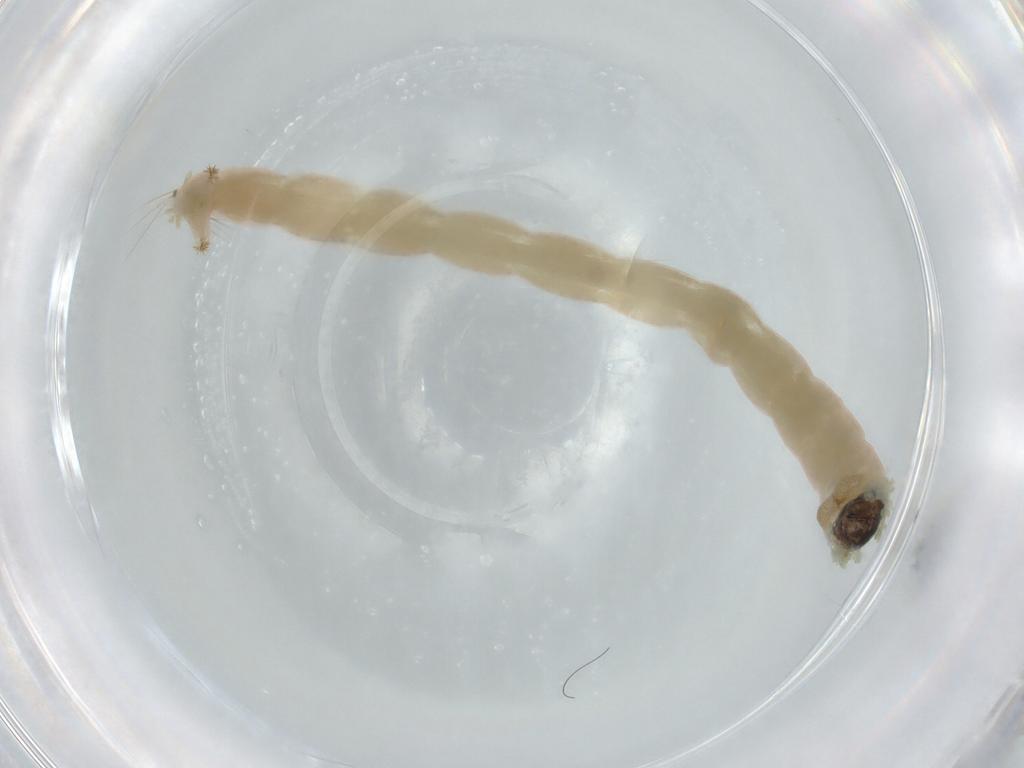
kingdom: Animalia
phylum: Arthropoda
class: Insecta
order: Diptera
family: Chironomidae
